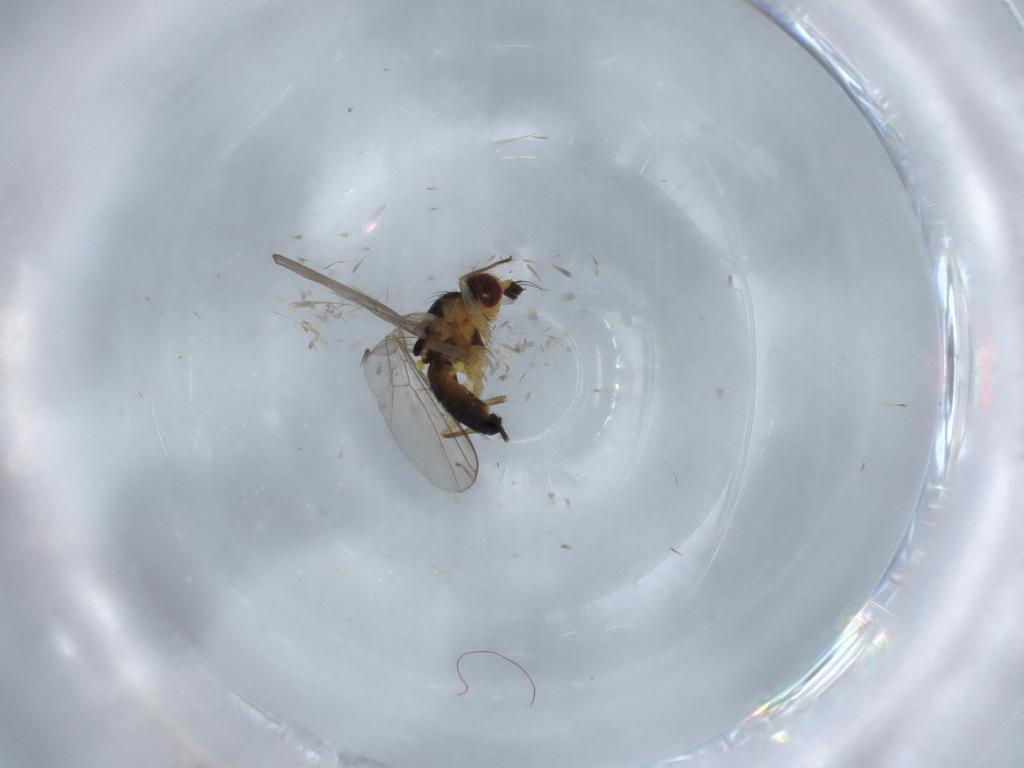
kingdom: Animalia
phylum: Arthropoda
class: Insecta
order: Diptera
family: Agromyzidae
